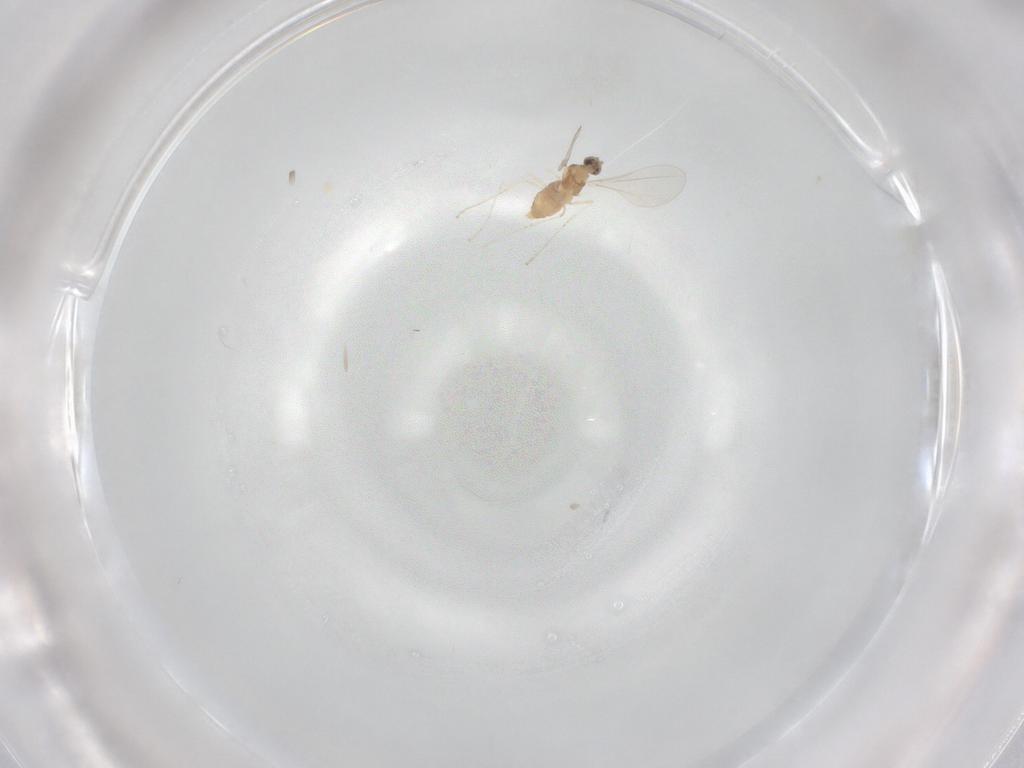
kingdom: Animalia
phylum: Arthropoda
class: Insecta
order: Diptera
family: Cecidomyiidae
